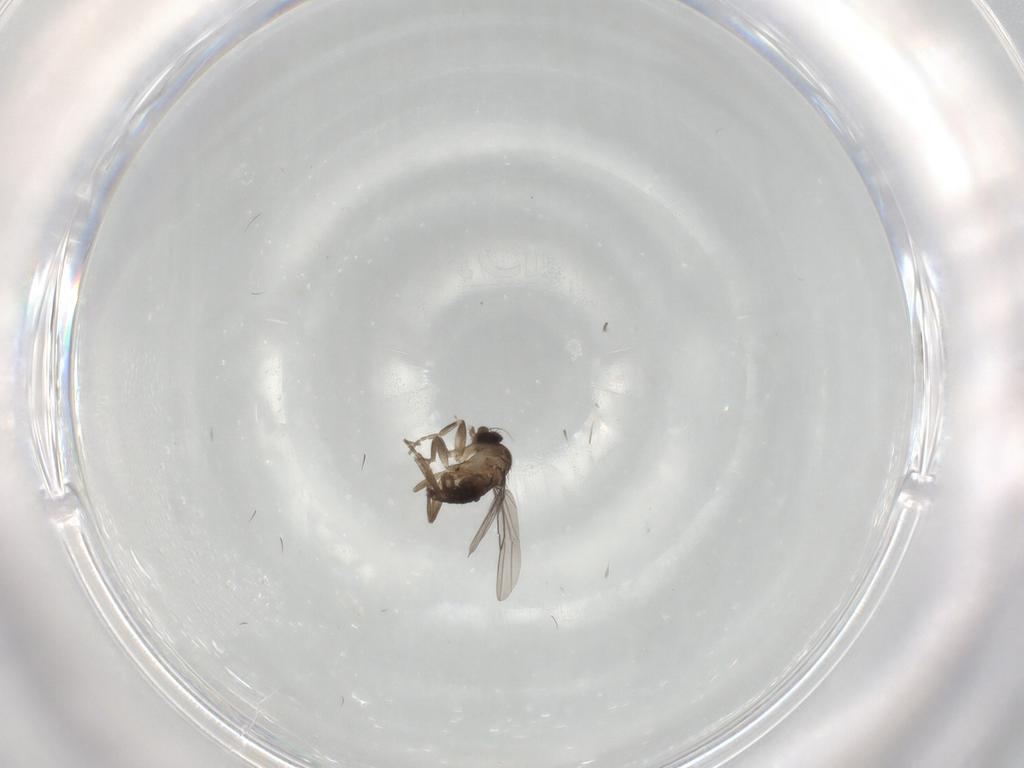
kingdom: Animalia
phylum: Arthropoda
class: Insecta
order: Diptera
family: Phoridae
